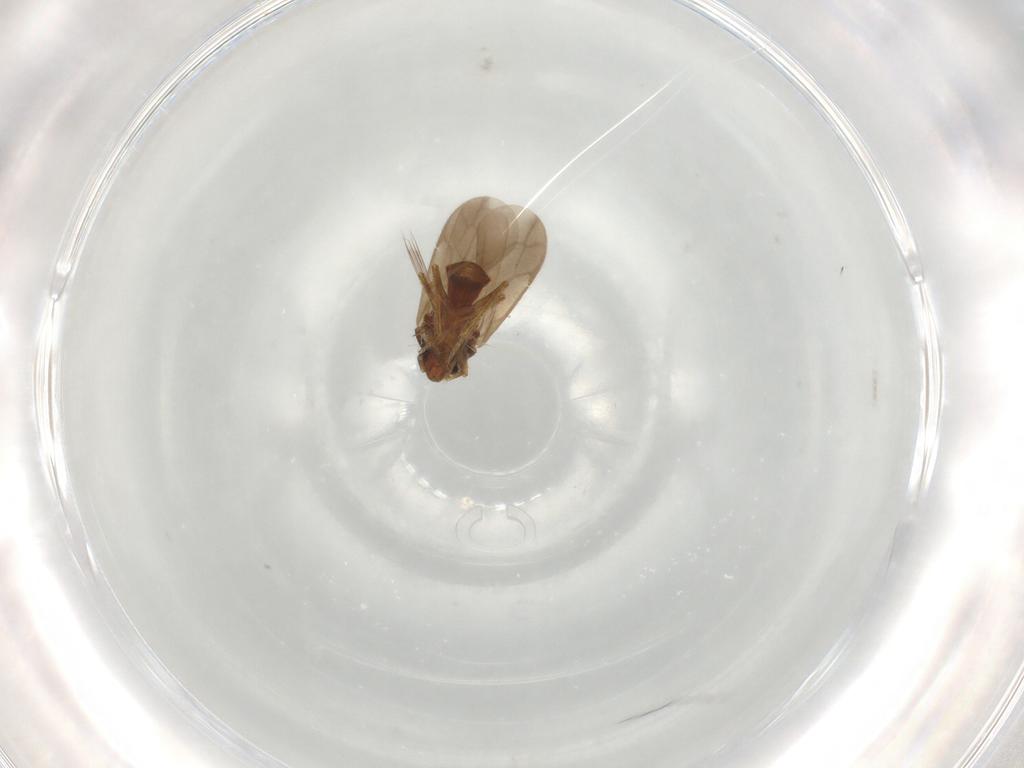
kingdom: Animalia
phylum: Arthropoda
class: Insecta
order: Hemiptera
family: Ceratocombidae
